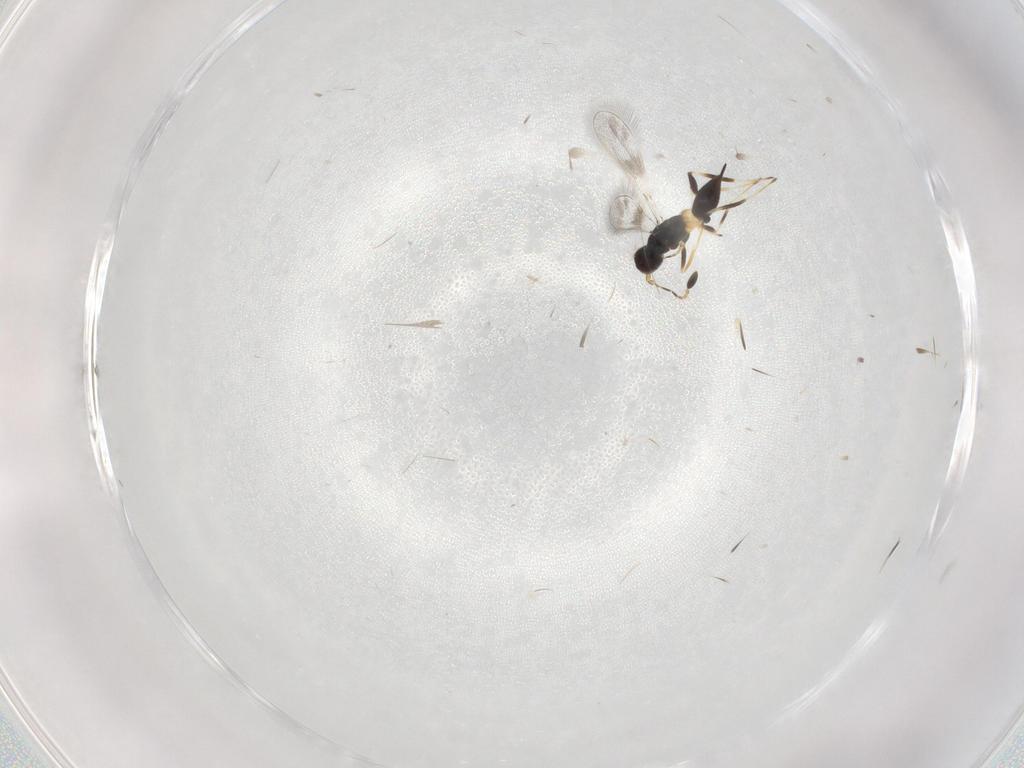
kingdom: Animalia
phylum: Arthropoda
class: Insecta
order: Hymenoptera
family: Mymaridae
